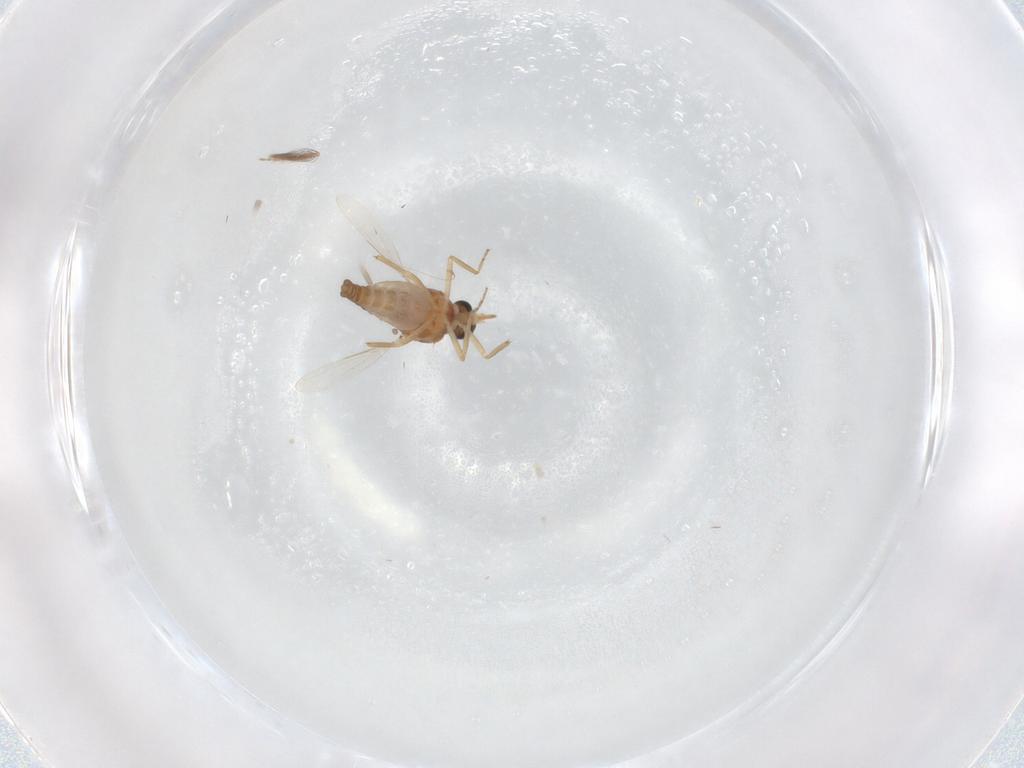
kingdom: Animalia
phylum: Arthropoda
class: Insecta
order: Diptera
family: Ceratopogonidae
